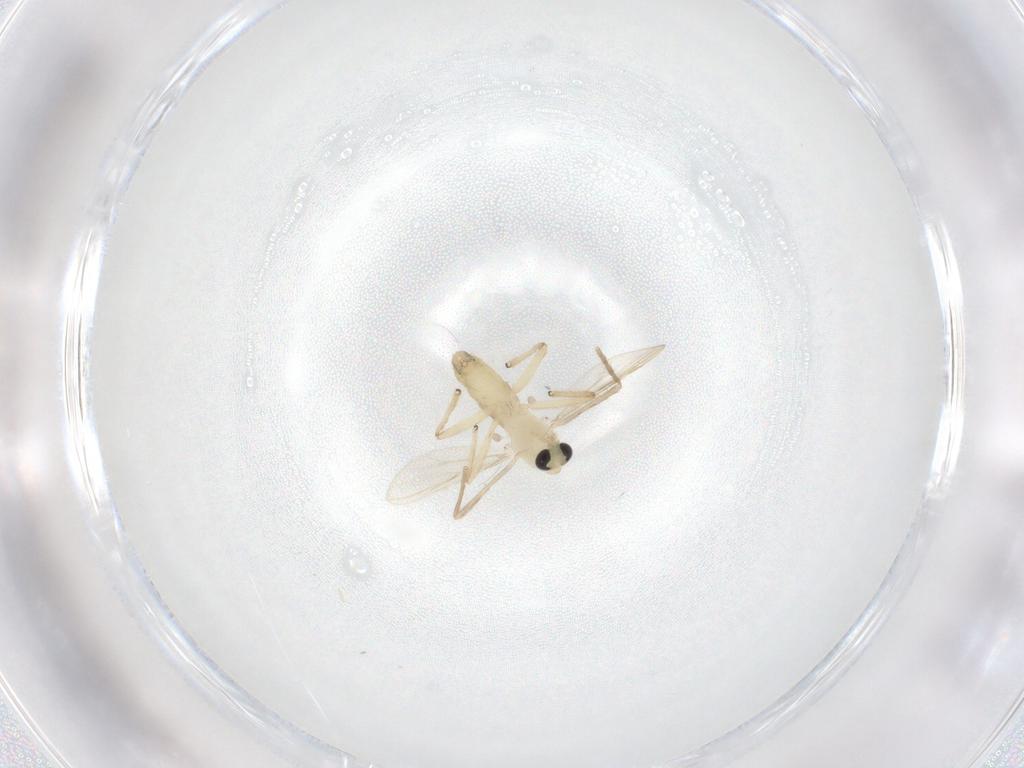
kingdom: Animalia
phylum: Arthropoda
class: Insecta
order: Diptera
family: Chironomidae
